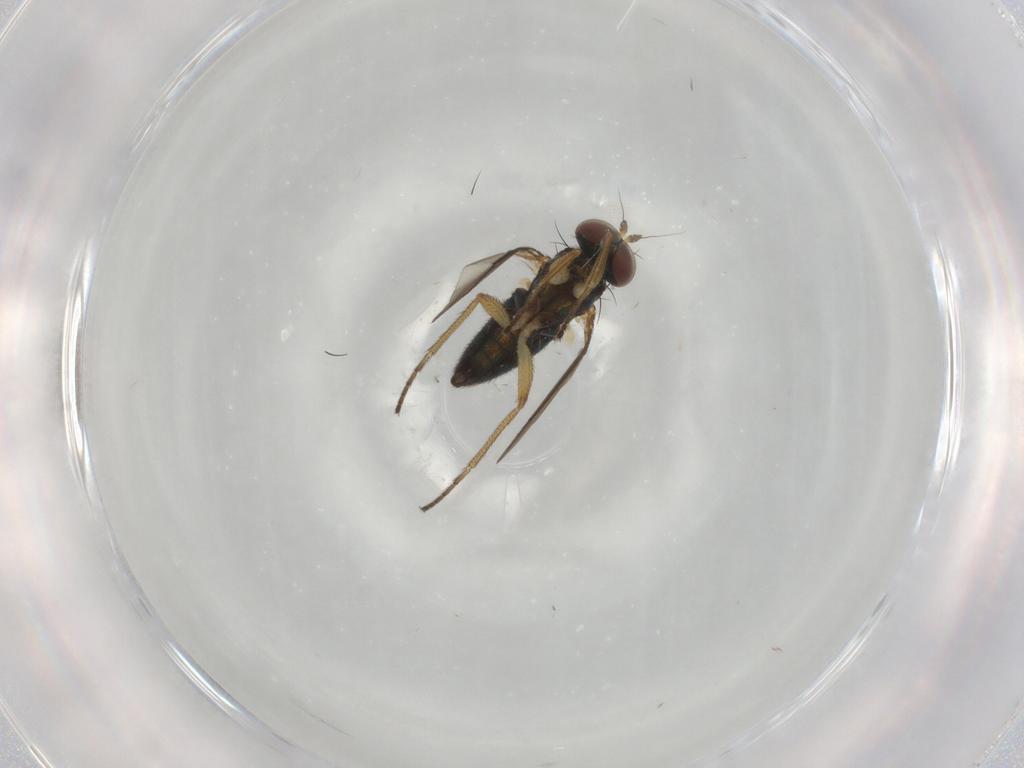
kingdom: Animalia
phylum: Arthropoda
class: Insecta
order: Diptera
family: Dolichopodidae
